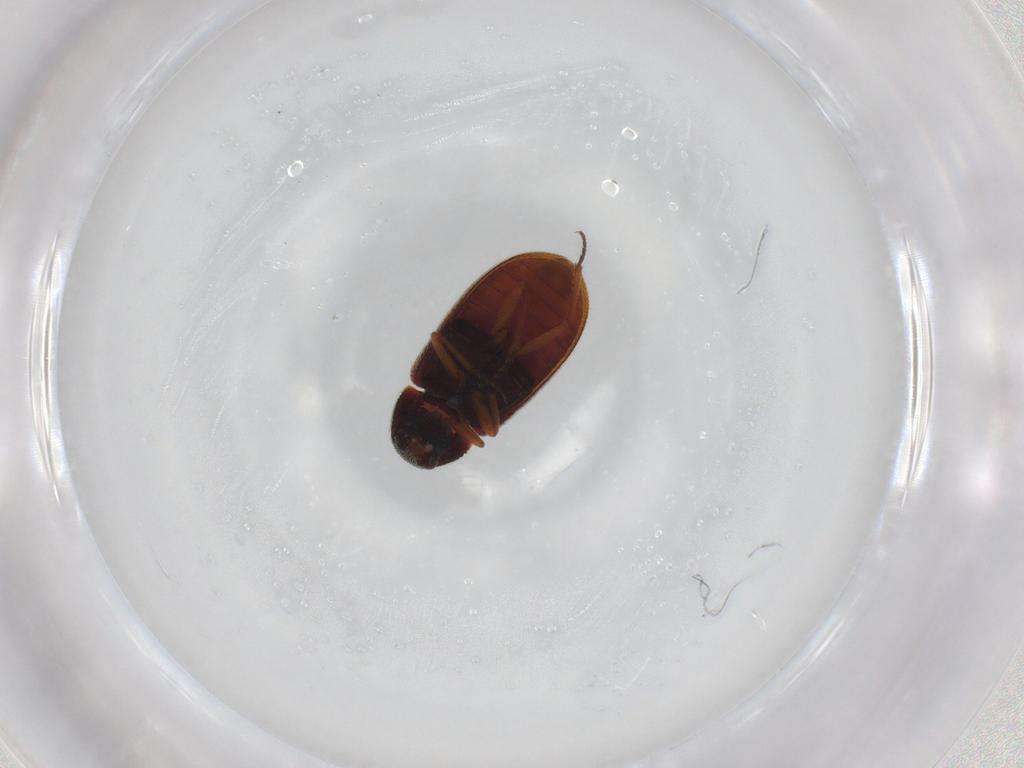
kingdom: Animalia
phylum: Arthropoda
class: Insecta
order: Coleoptera
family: Rhadalidae
